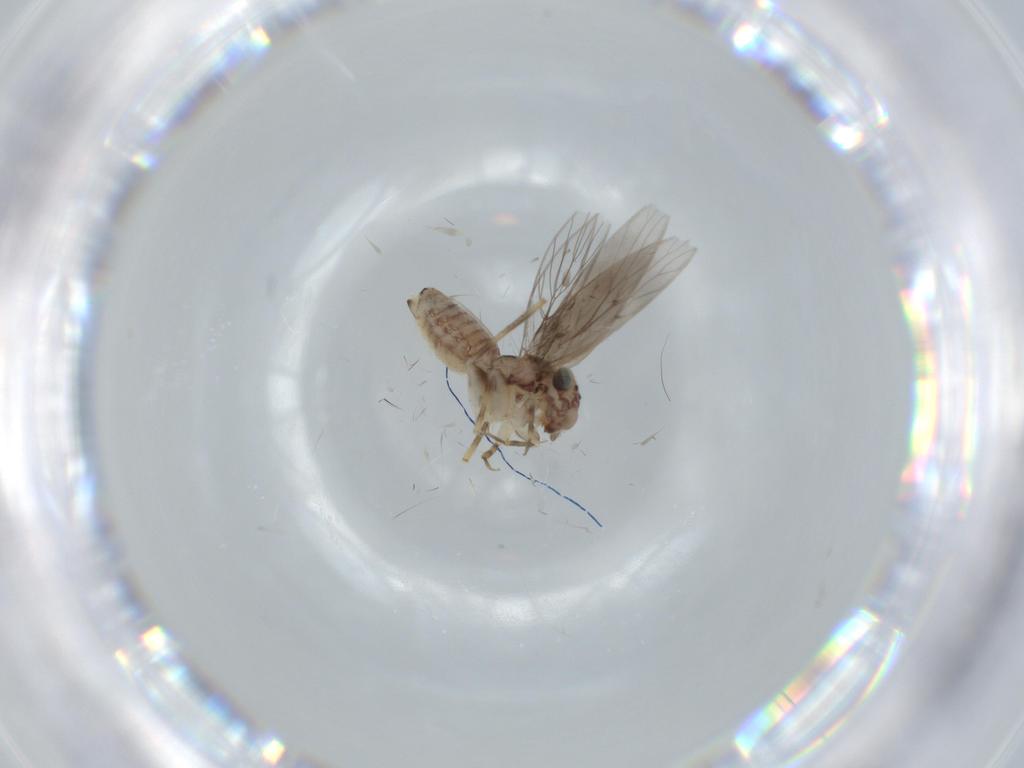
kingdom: Animalia
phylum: Arthropoda
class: Insecta
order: Psocodea
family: Lepidopsocidae
